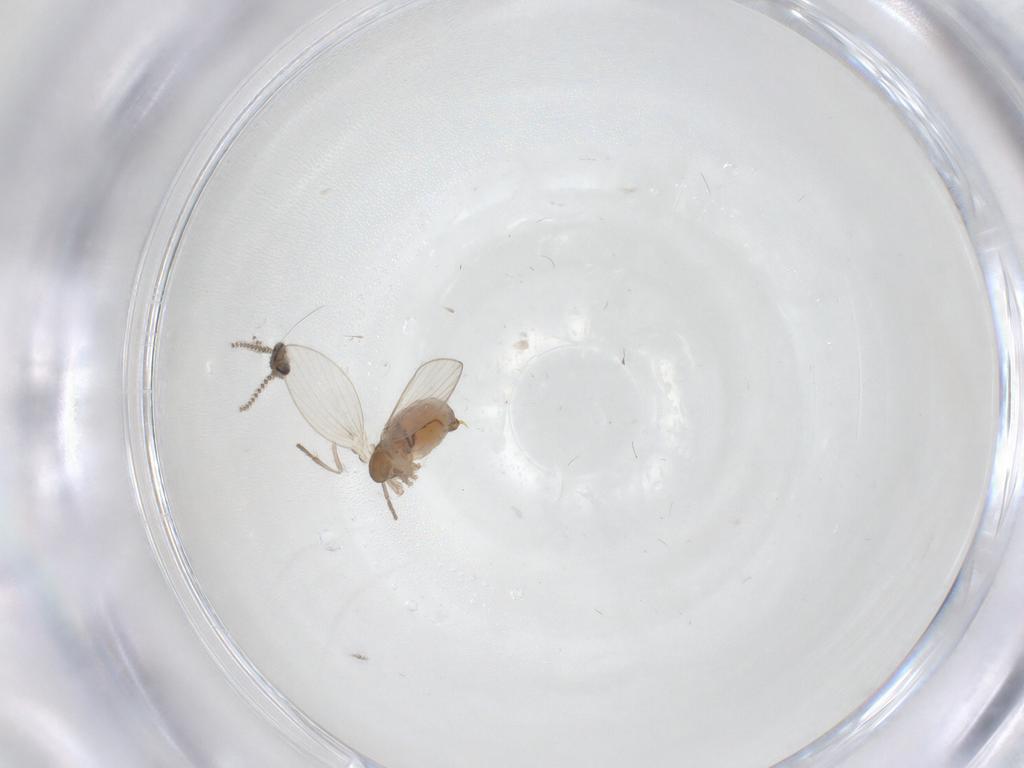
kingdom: Animalia
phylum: Arthropoda
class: Insecta
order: Diptera
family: Psychodidae
